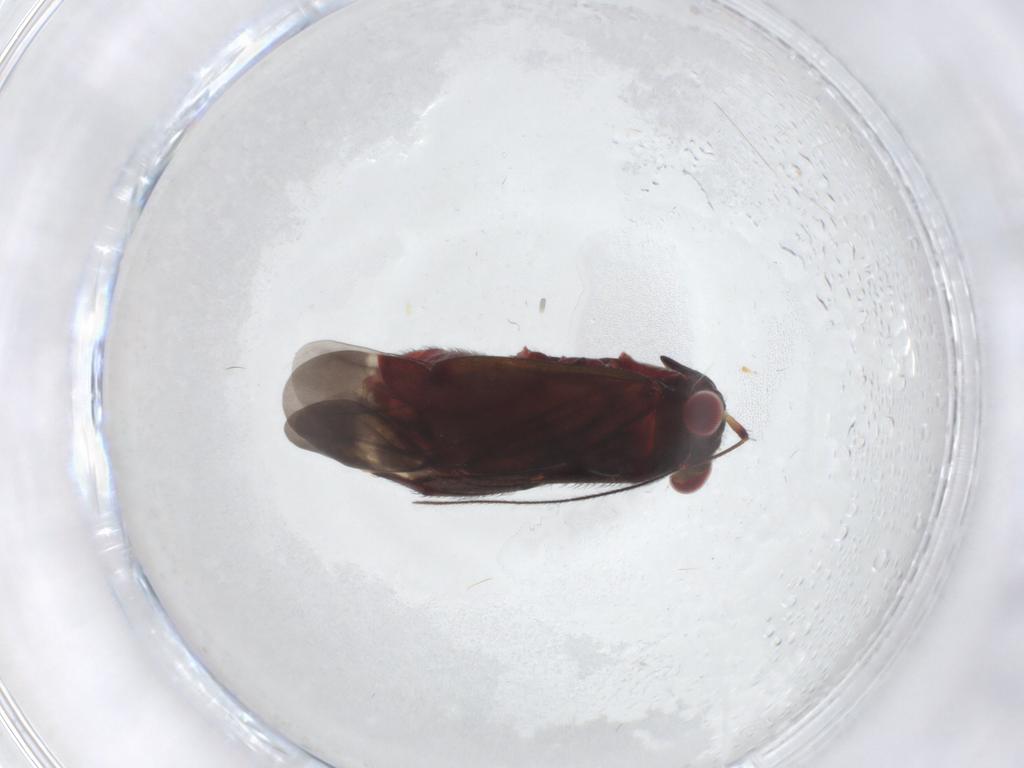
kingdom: Animalia
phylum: Arthropoda
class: Insecta
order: Hemiptera
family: Miridae
